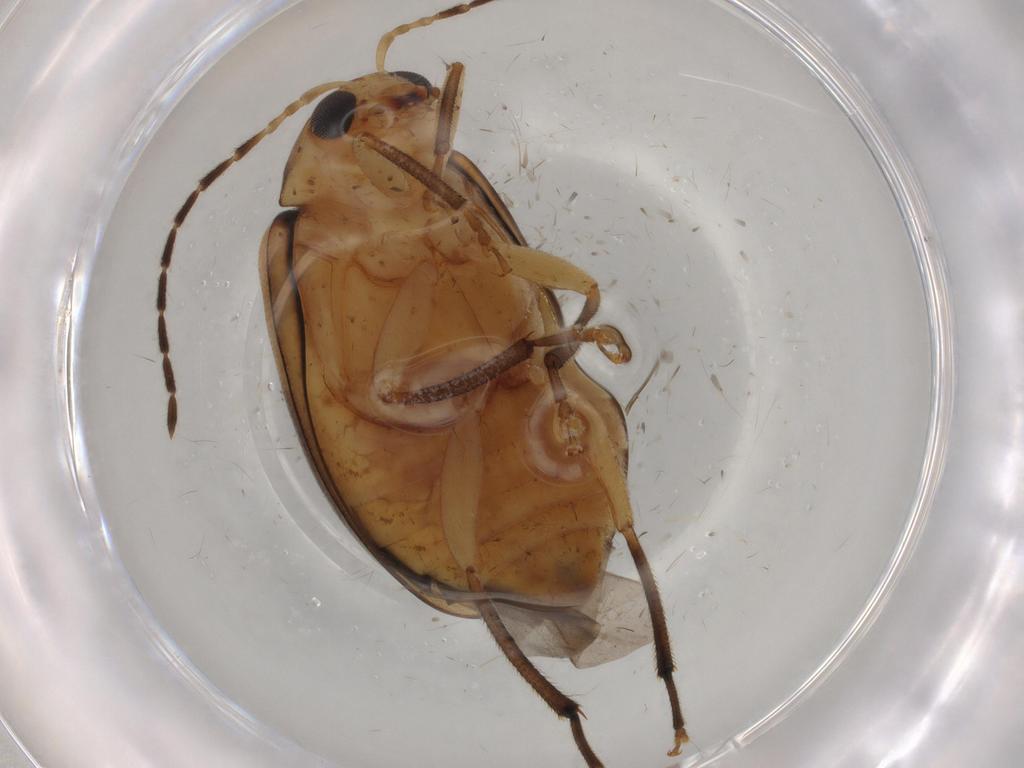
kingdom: Animalia
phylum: Arthropoda
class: Insecta
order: Coleoptera
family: Chrysomelidae
